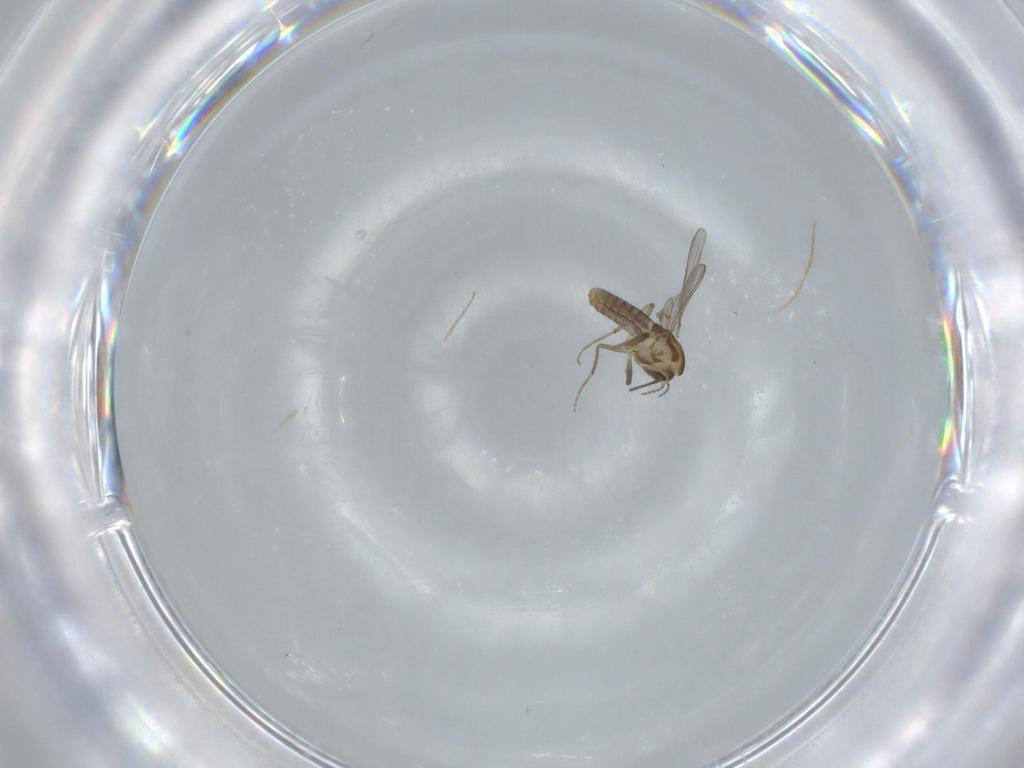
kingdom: Animalia
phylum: Arthropoda
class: Insecta
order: Diptera
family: Chironomidae
